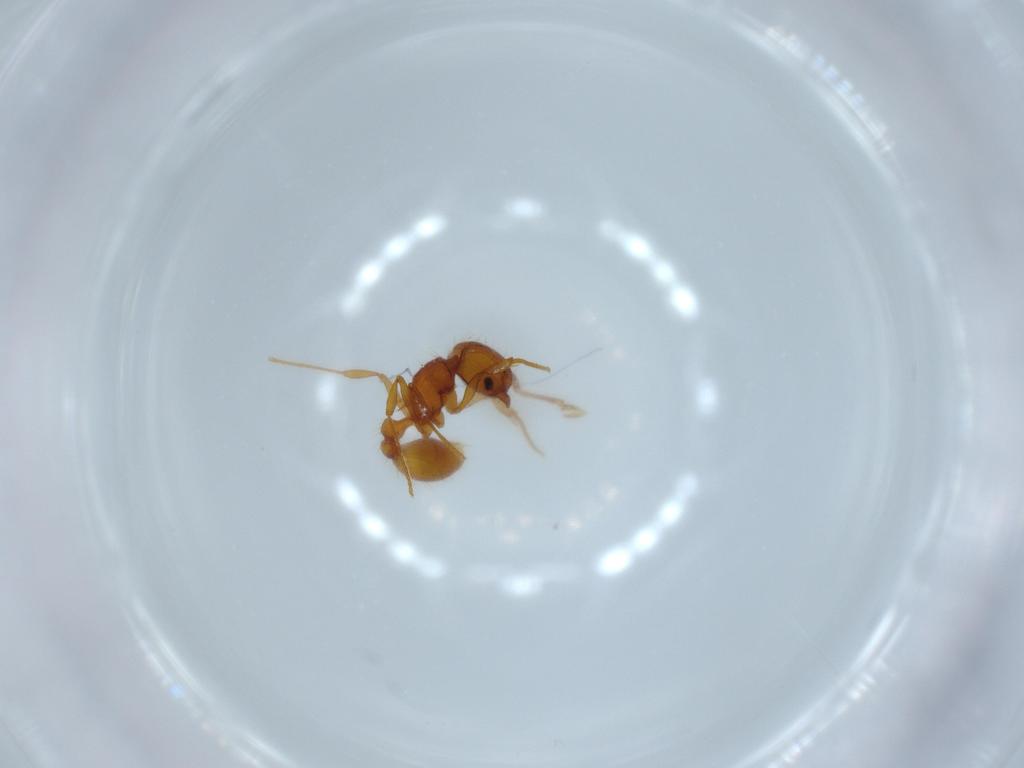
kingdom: Animalia
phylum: Arthropoda
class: Insecta
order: Hymenoptera
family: Formicidae
